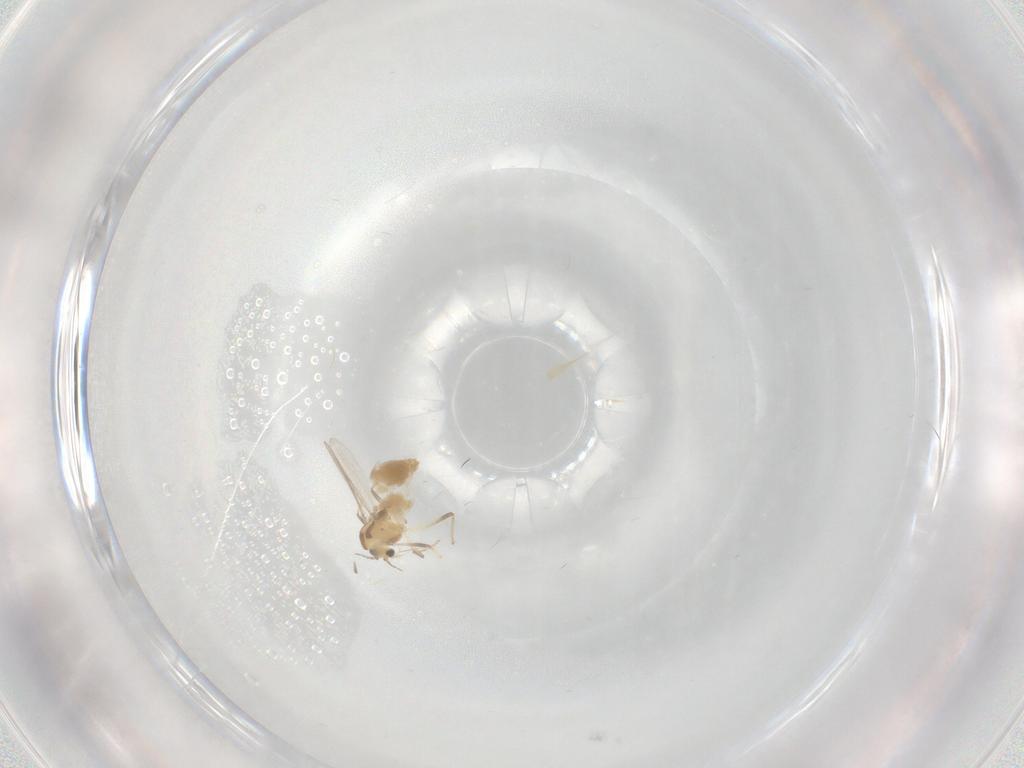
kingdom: Animalia
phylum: Arthropoda
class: Insecta
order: Diptera
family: Chironomidae
